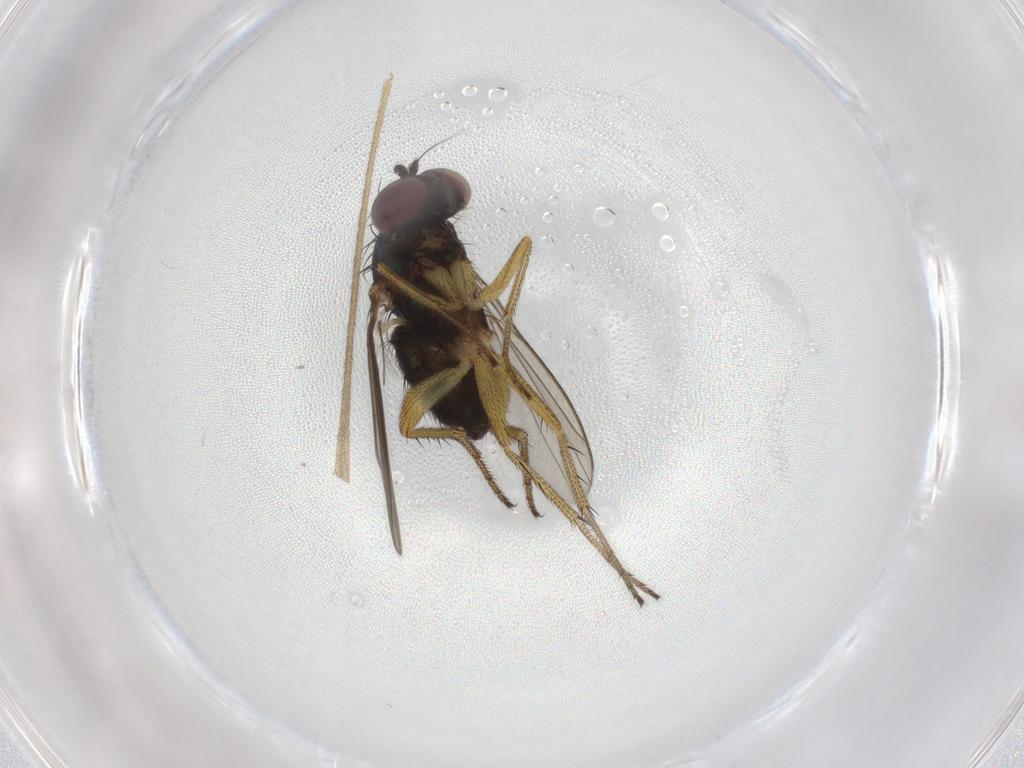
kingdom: Animalia
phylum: Arthropoda
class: Insecta
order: Diptera
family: Limoniidae
